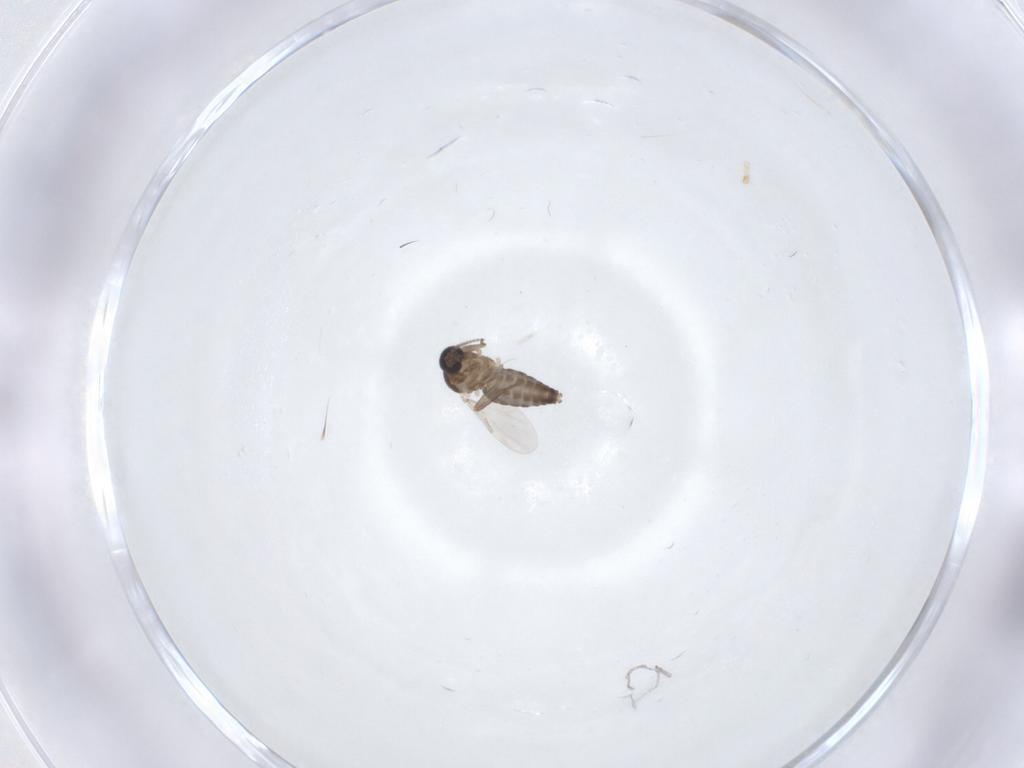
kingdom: Animalia
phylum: Arthropoda
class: Insecta
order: Diptera
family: Ceratopogonidae
